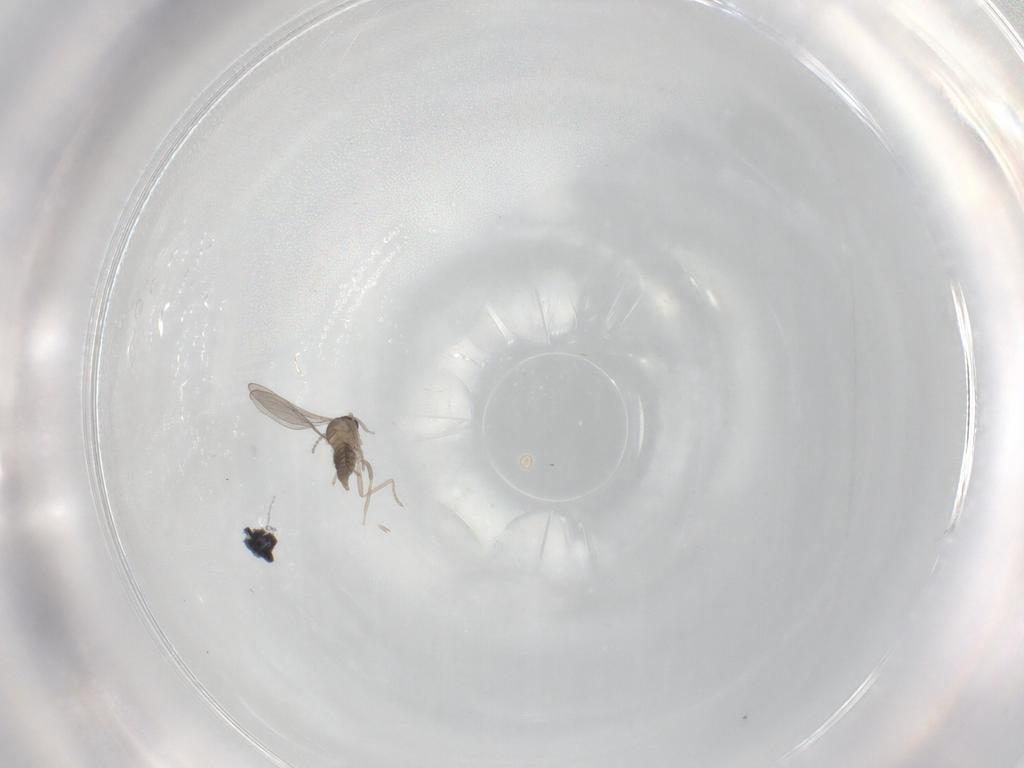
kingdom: Animalia
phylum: Arthropoda
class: Insecta
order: Diptera
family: Cecidomyiidae
